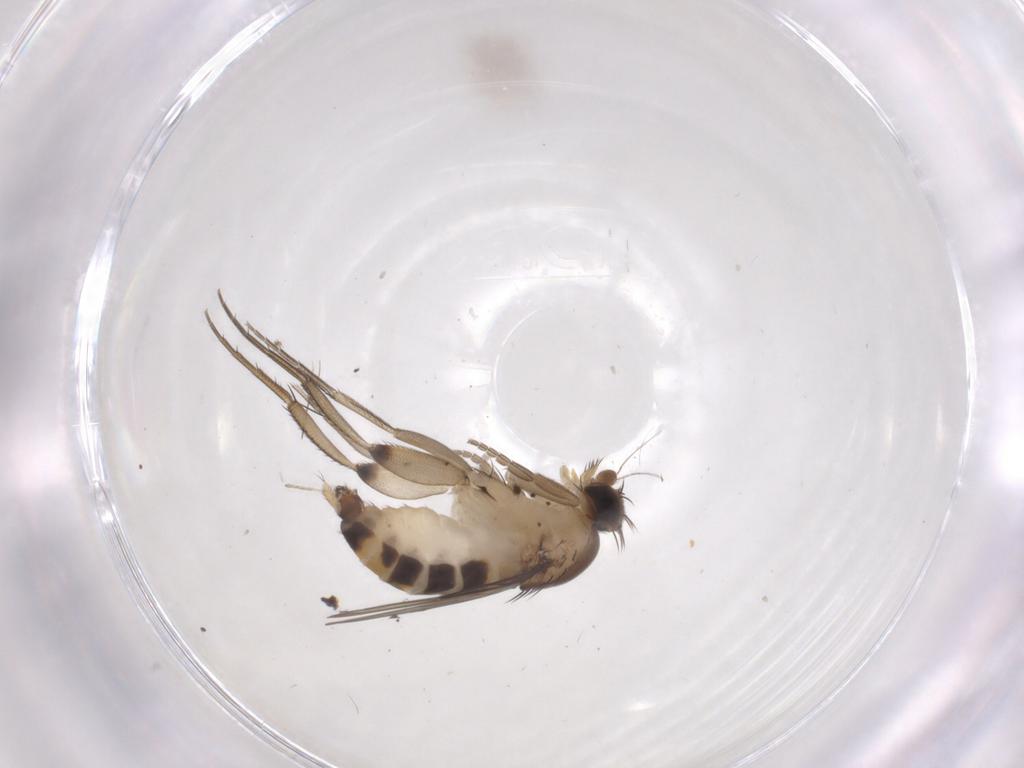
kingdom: Animalia
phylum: Arthropoda
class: Insecta
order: Diptera
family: Phoridae
